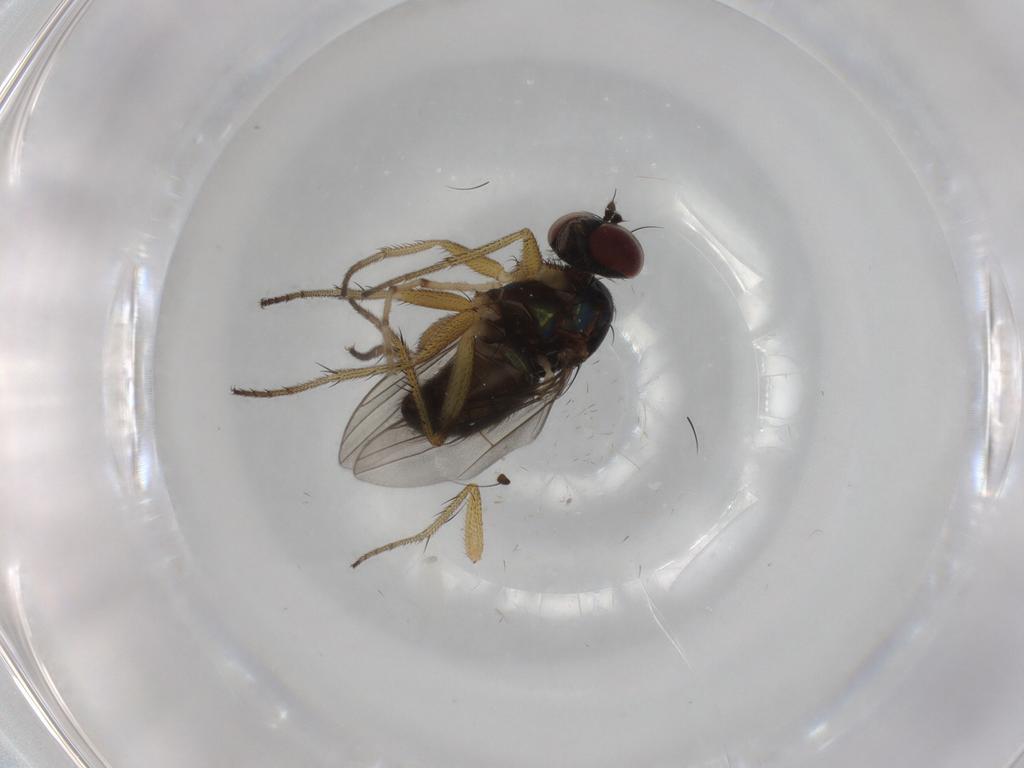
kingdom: Animalia
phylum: Arthropoda
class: Insecta
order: Diptera
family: Dolichopodidae
